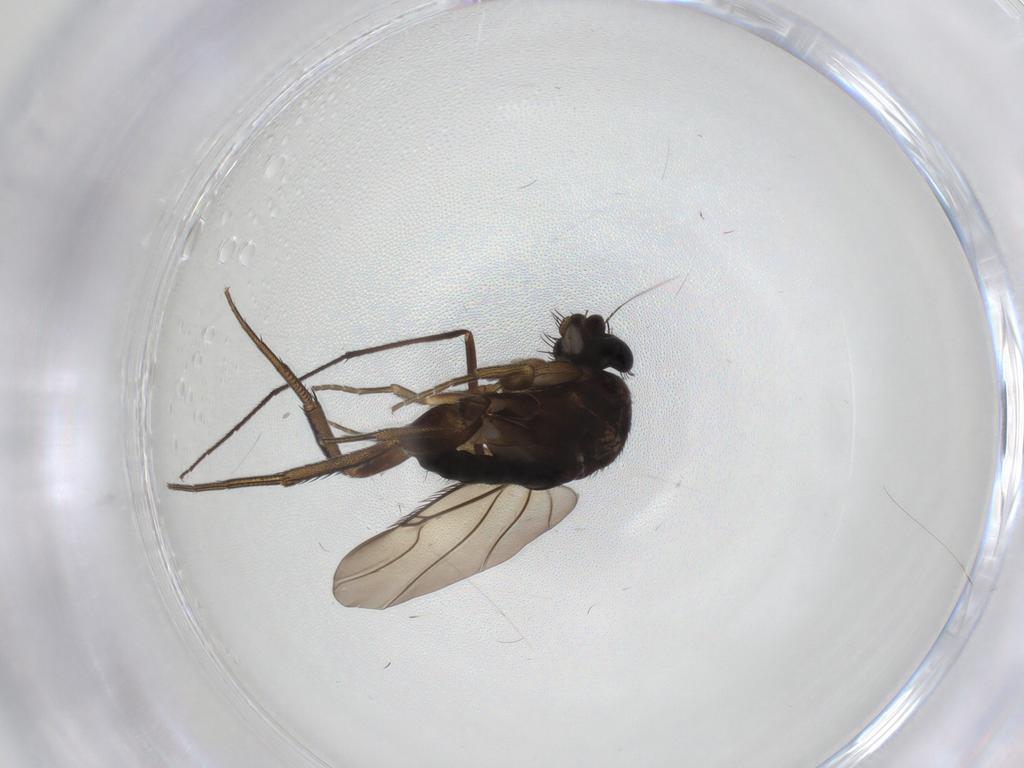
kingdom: Animalia
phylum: Arthropoda
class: Insecta
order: Diptera
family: Phoridae
